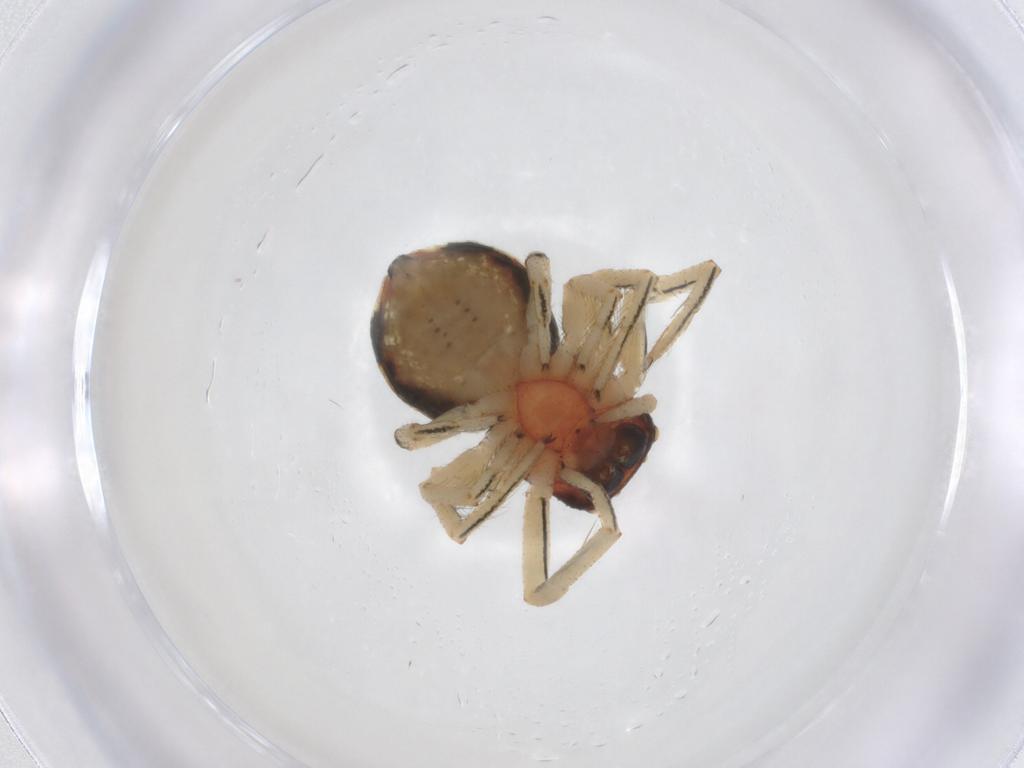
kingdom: Animalia
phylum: Arthropoda
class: Arachnida
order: Araneae
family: Thomisidae
